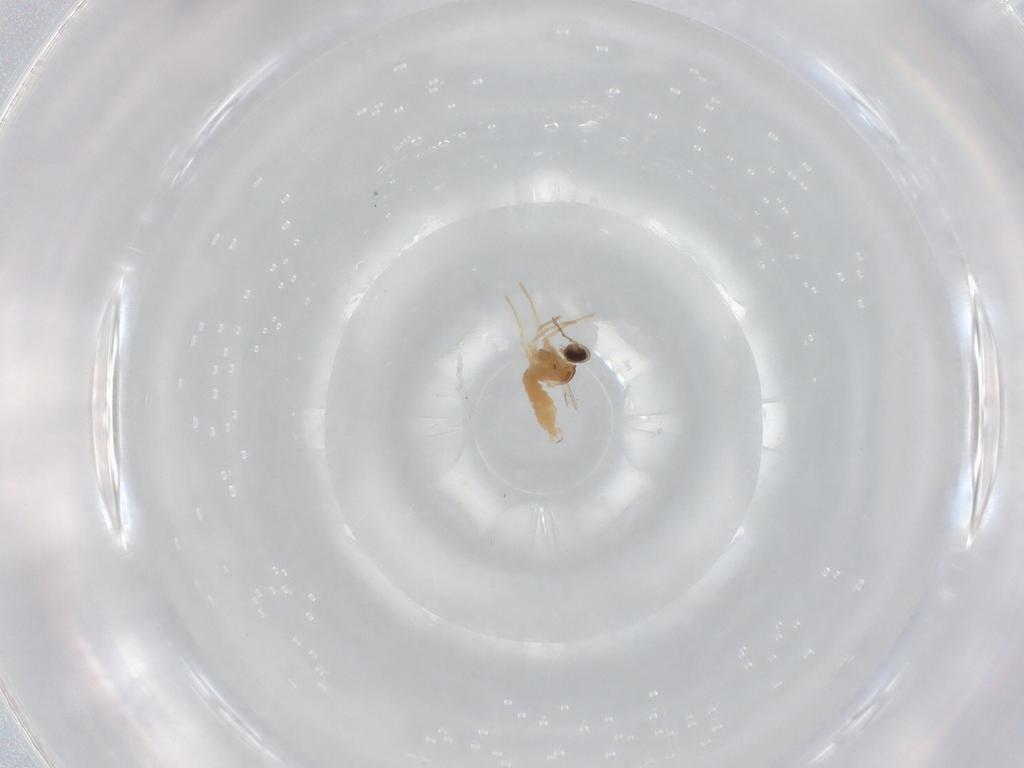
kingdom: Animalia
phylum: Arthropoda
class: Insecta
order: Diptera
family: Cecidomyiidae
